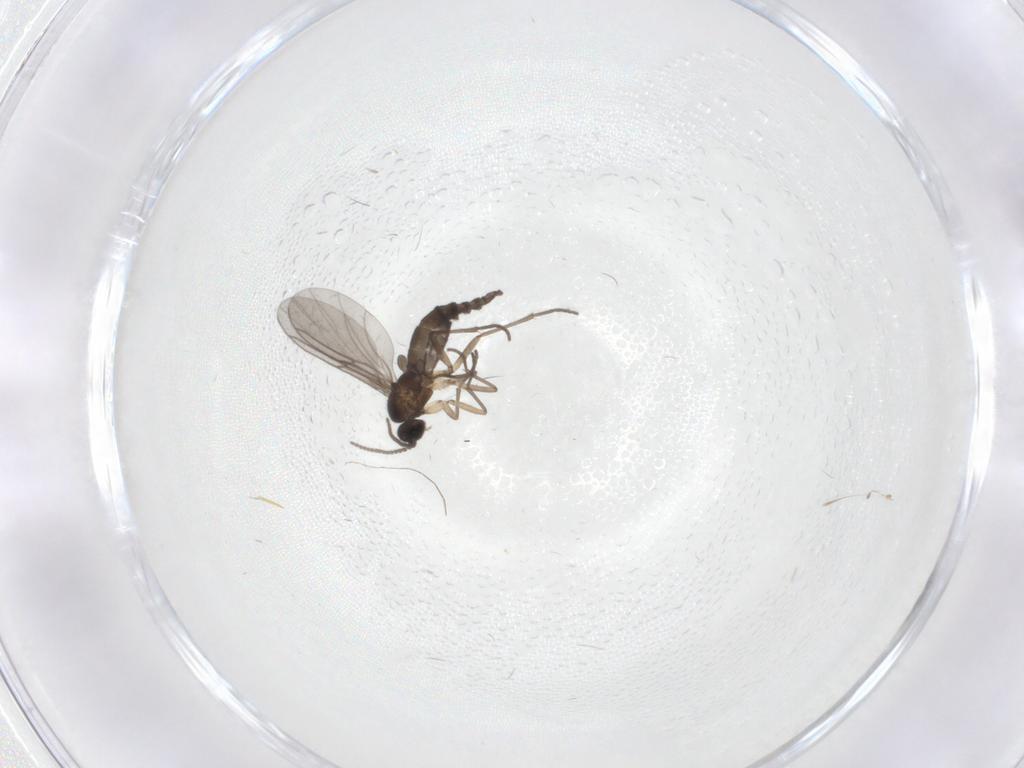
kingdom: Animalia
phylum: Arthropoda
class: Insecta
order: Diptera
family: Sciaridae
